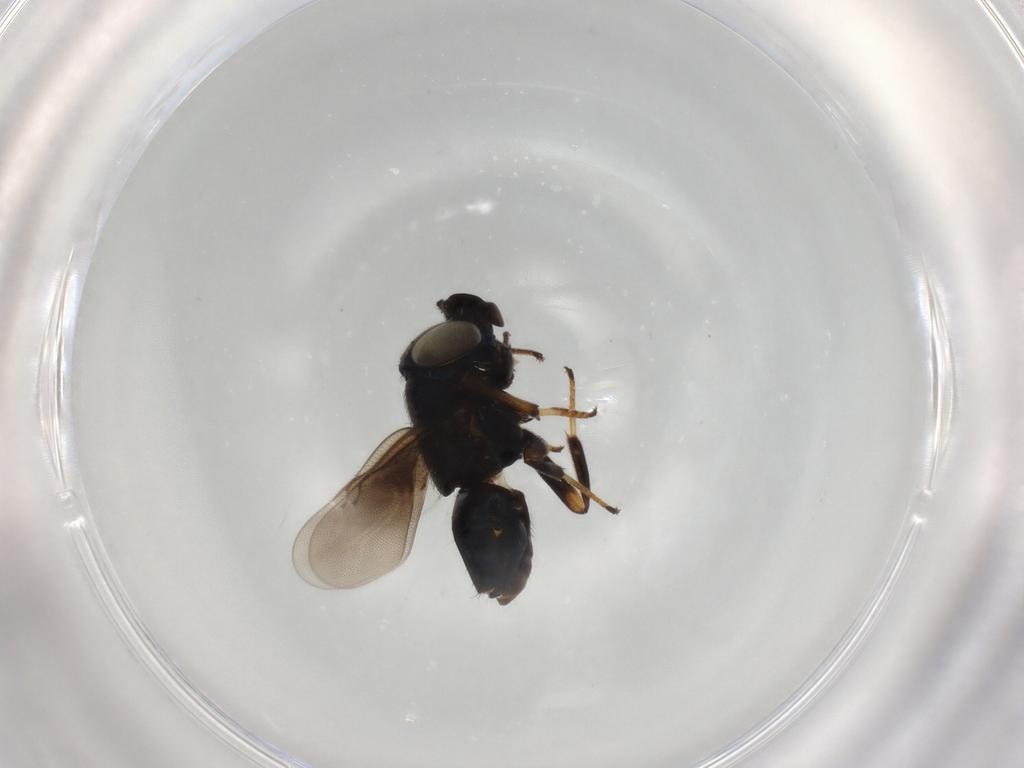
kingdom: Animalia
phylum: Arthropoda
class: Insecta
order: Hymenoptera
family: Encyrtidae
